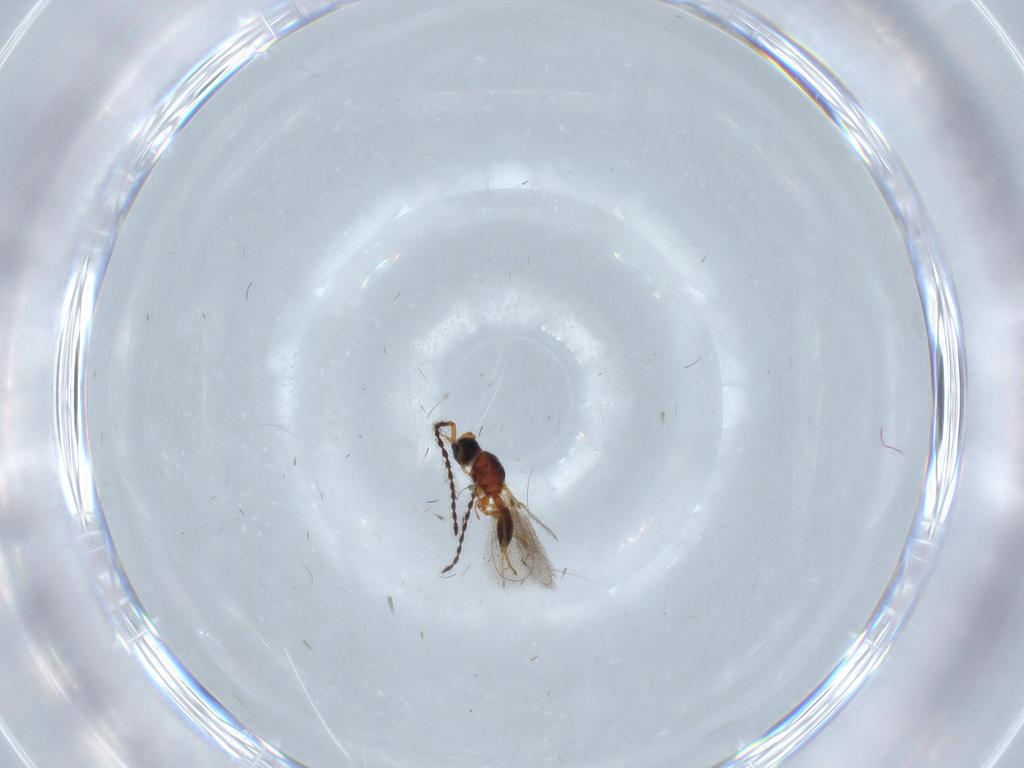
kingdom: Animalia
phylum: Arthropoda
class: Insecta
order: Hymenoptera
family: Diapriidae
